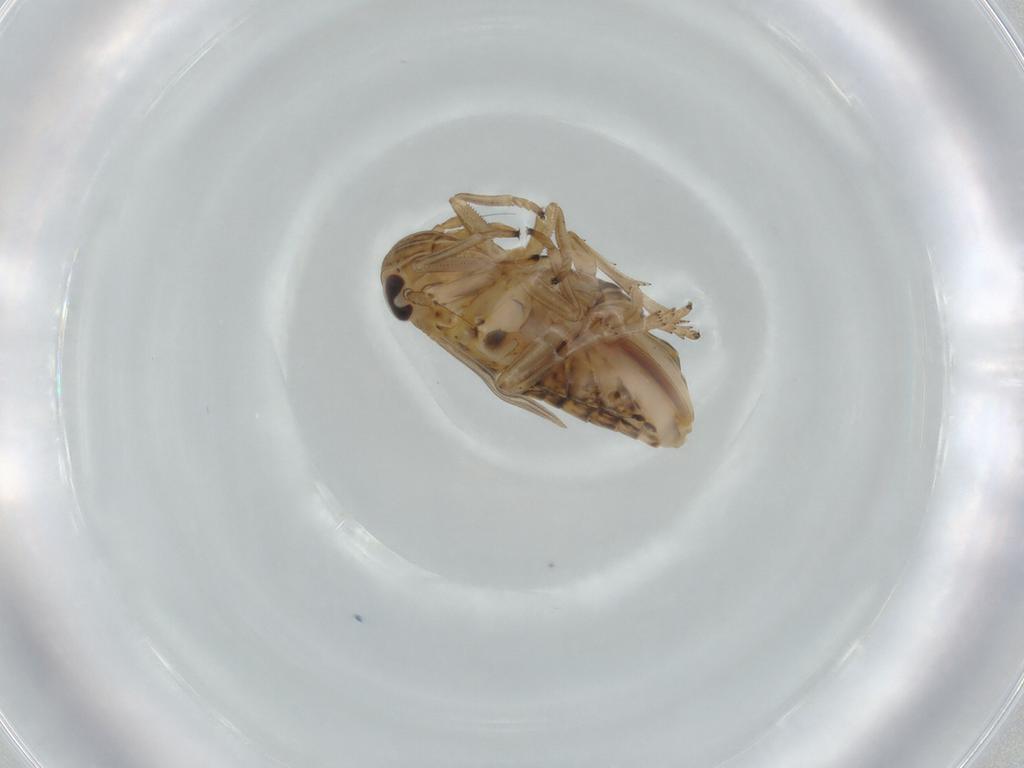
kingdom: Animalia
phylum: Arthropoda
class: Insecta
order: Hemiptera
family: Delphacidae
